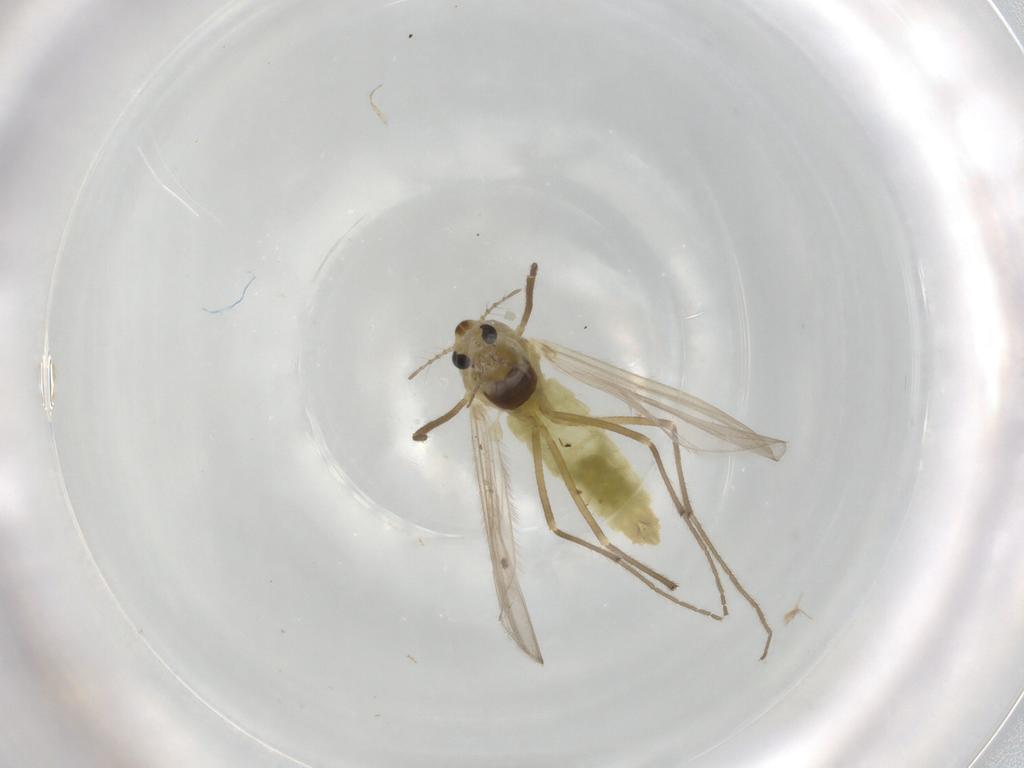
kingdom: Animalia
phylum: Arthropoda
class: Insecta
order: Diptera
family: Chironomidae
